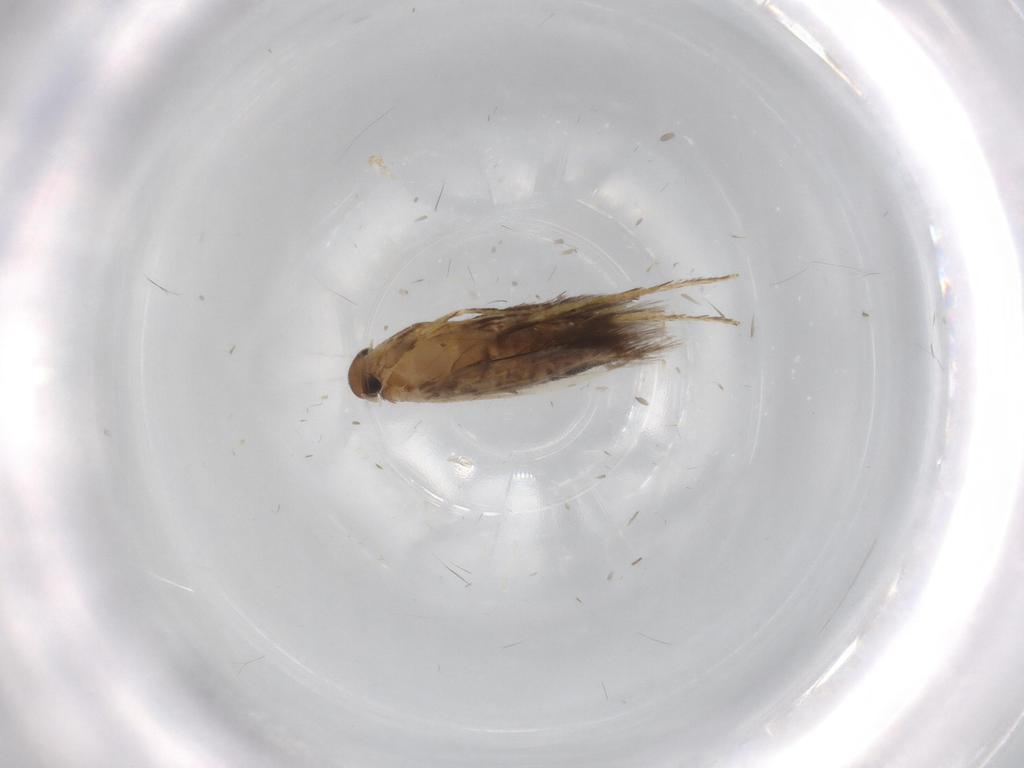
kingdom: Animalia
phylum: Arthropoda
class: Insecta
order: Lepidoptera
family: Heliozelidae
